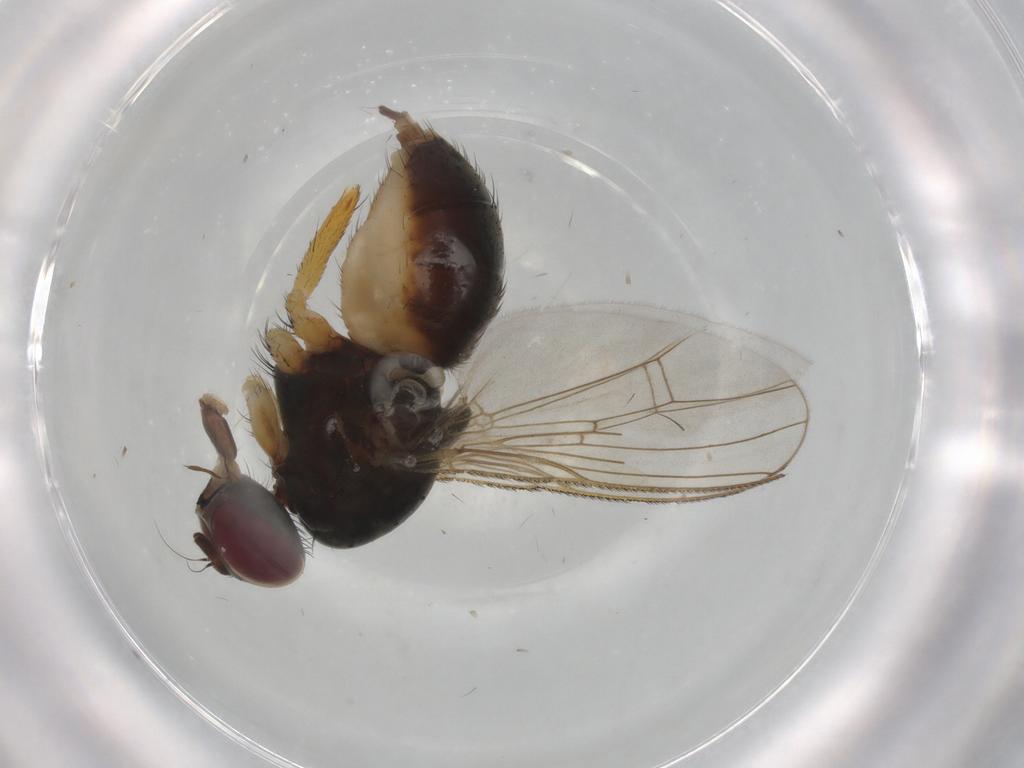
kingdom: Animalia
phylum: Arthropoda
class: Insecta
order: Diptera
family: Muscidae
